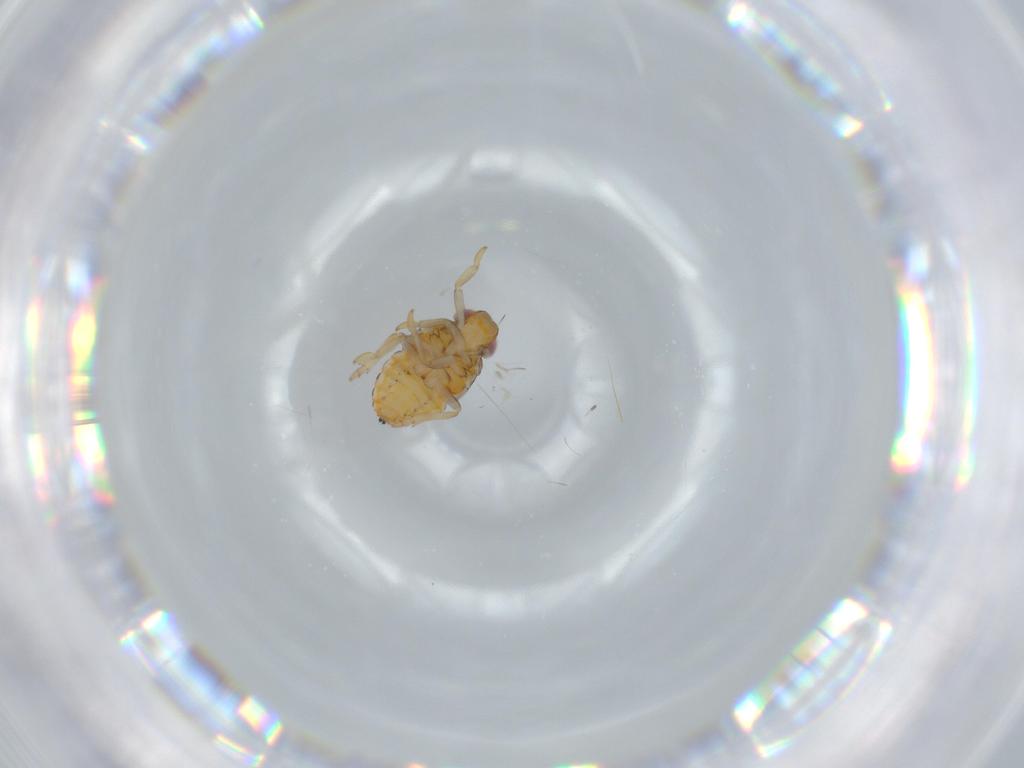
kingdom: Animalia
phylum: Arthropoda
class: Insecta
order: Hemiptera
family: Issidae
